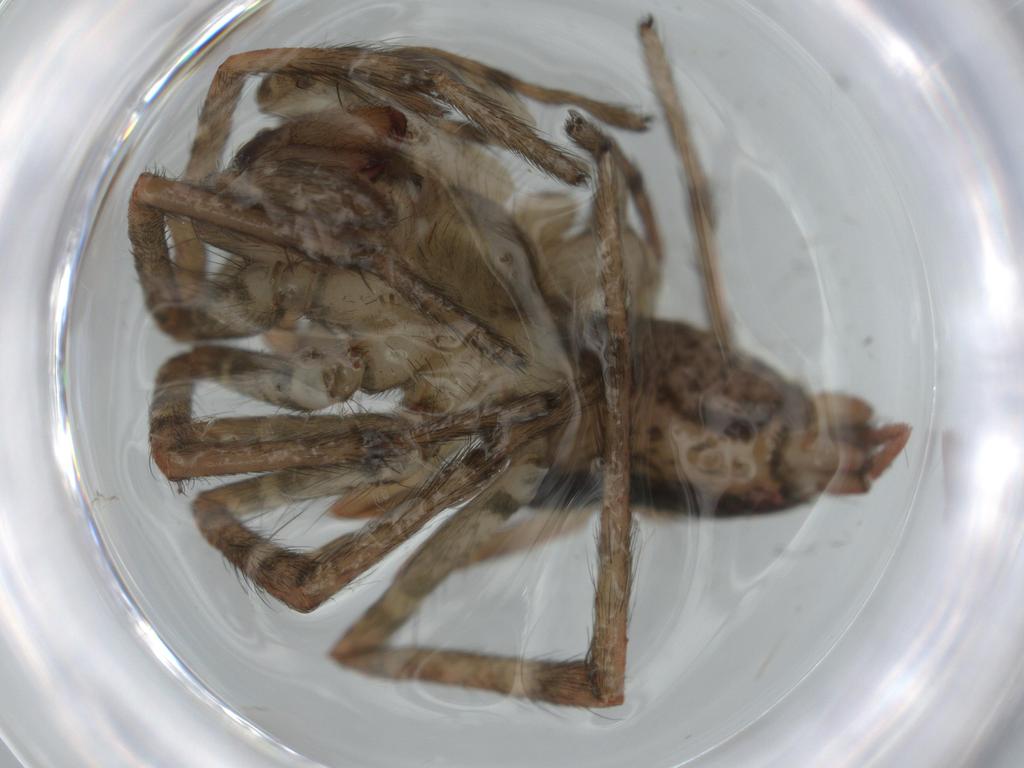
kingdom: Animalia
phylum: Arthropoda
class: Arachnida
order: Araneae
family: Agelenidae
